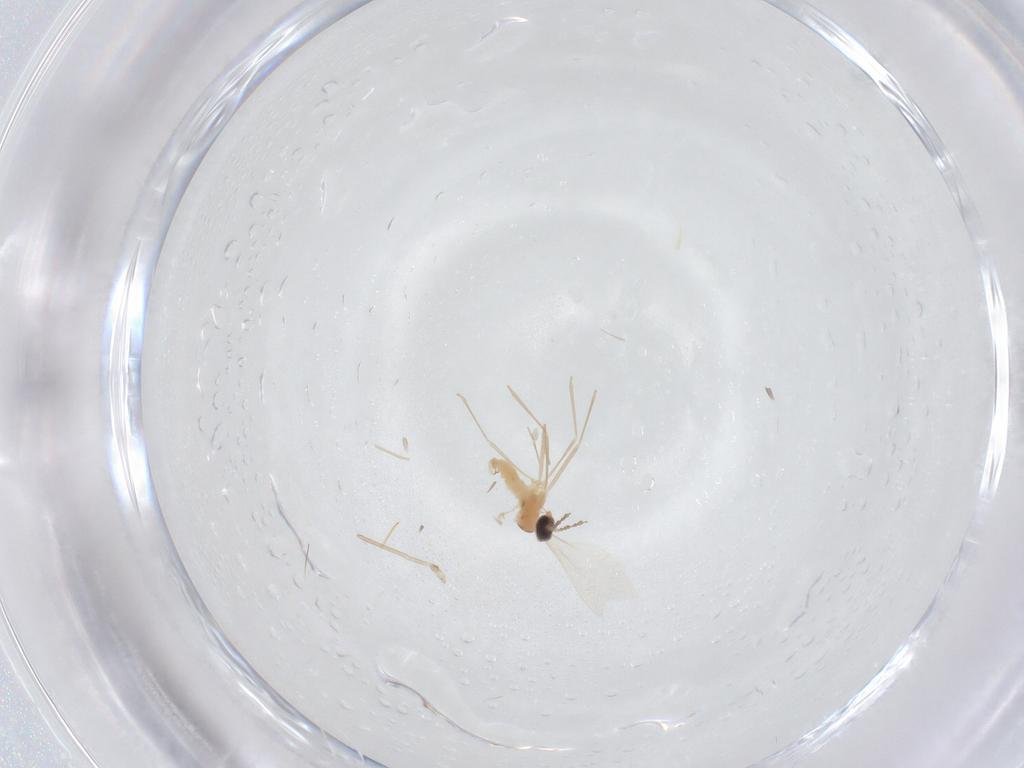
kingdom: Animalia
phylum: Arthropoda
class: Insecta
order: Diptera
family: Cecidomyiidae
